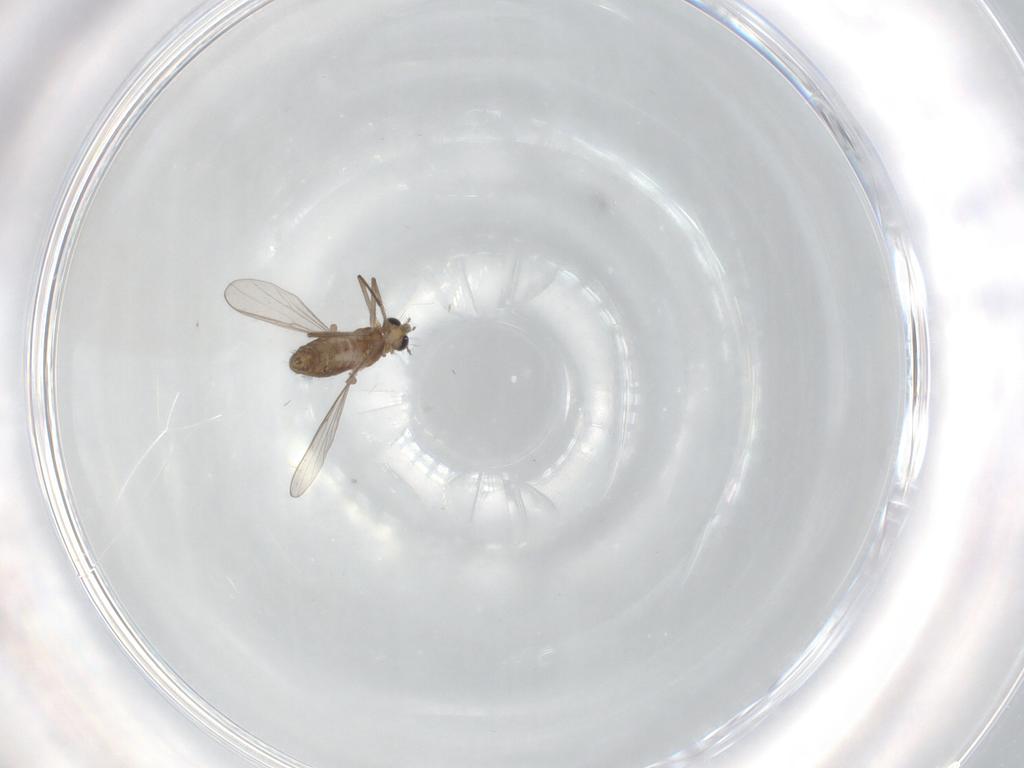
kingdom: Animalia
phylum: Arthropoda
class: Insecta
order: Diptera
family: Chironomidae
